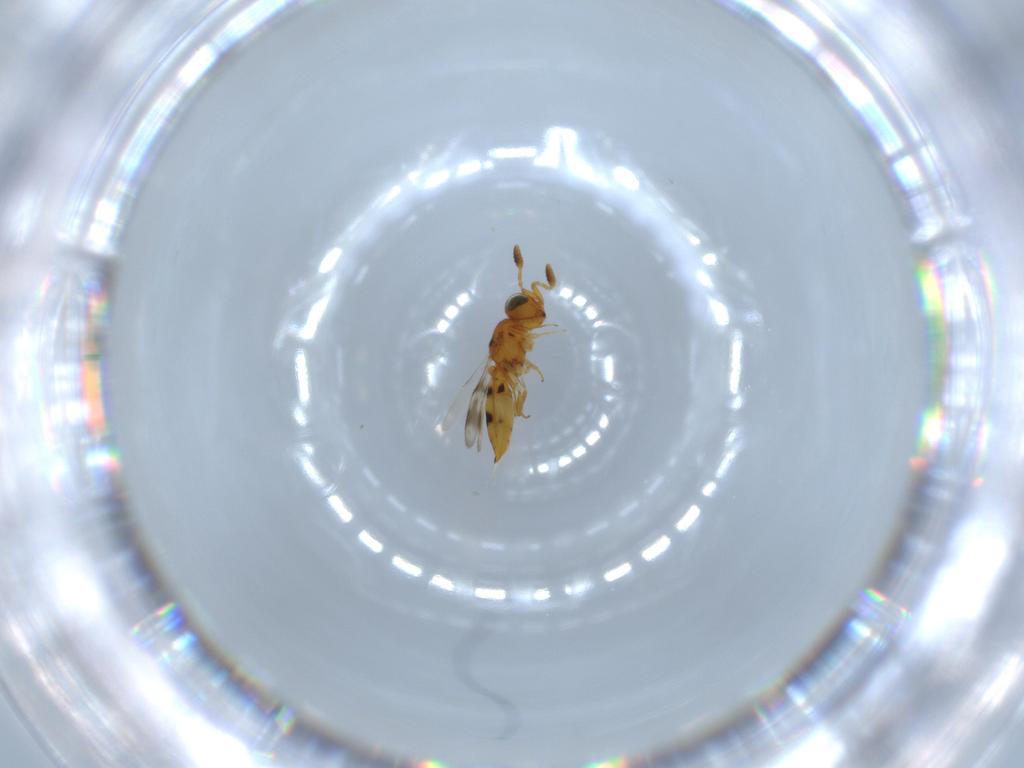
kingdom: Animalia
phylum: Arthropoda
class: Insecta
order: Hymenoptera
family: Scelionidae
